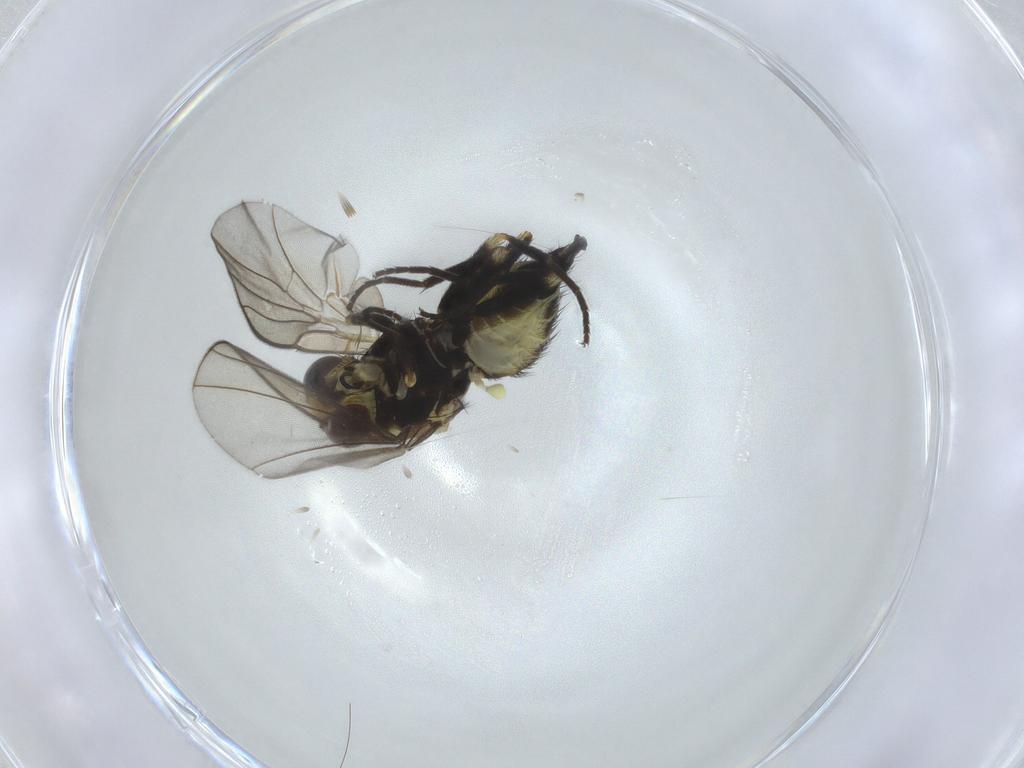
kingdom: Animalia
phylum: Arthropoda
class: Insecta
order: Diptera
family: Agromyzidae
